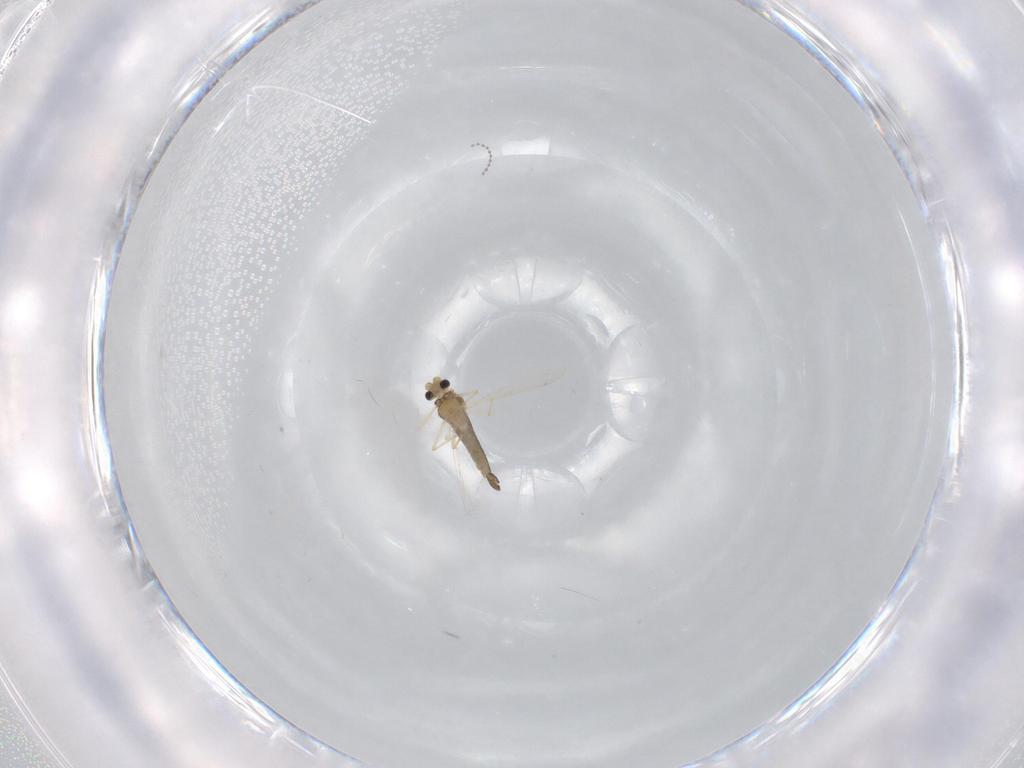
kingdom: Animalia
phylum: Arthropoda
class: Insecta
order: Diptera
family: Chironomidae
